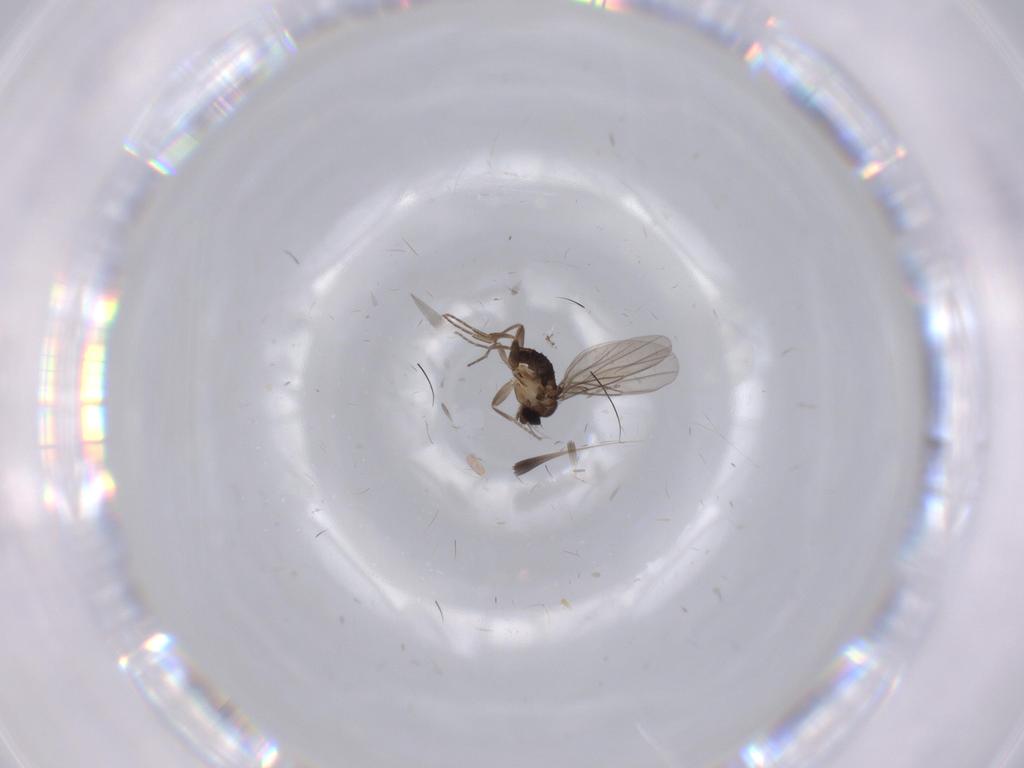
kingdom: Animalia
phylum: Arthropoda
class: Insecta
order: Diptera
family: Phoridae
